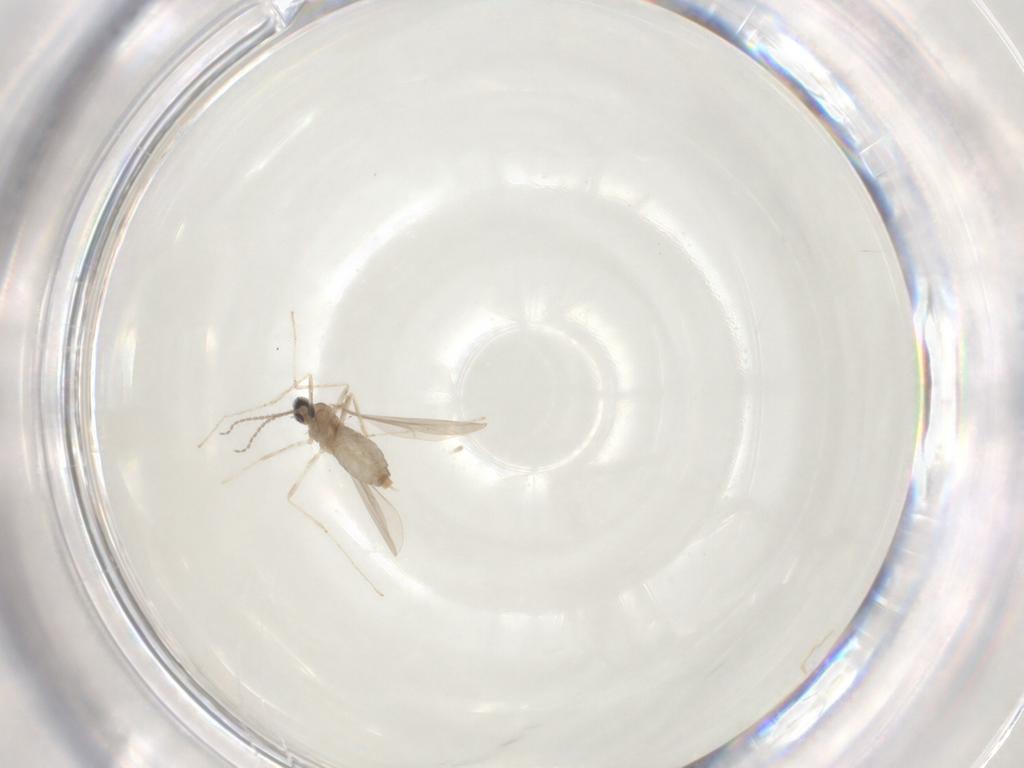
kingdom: Animalia
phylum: Arthropoda
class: Insecta
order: Diptera
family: Cecidomyiidae
